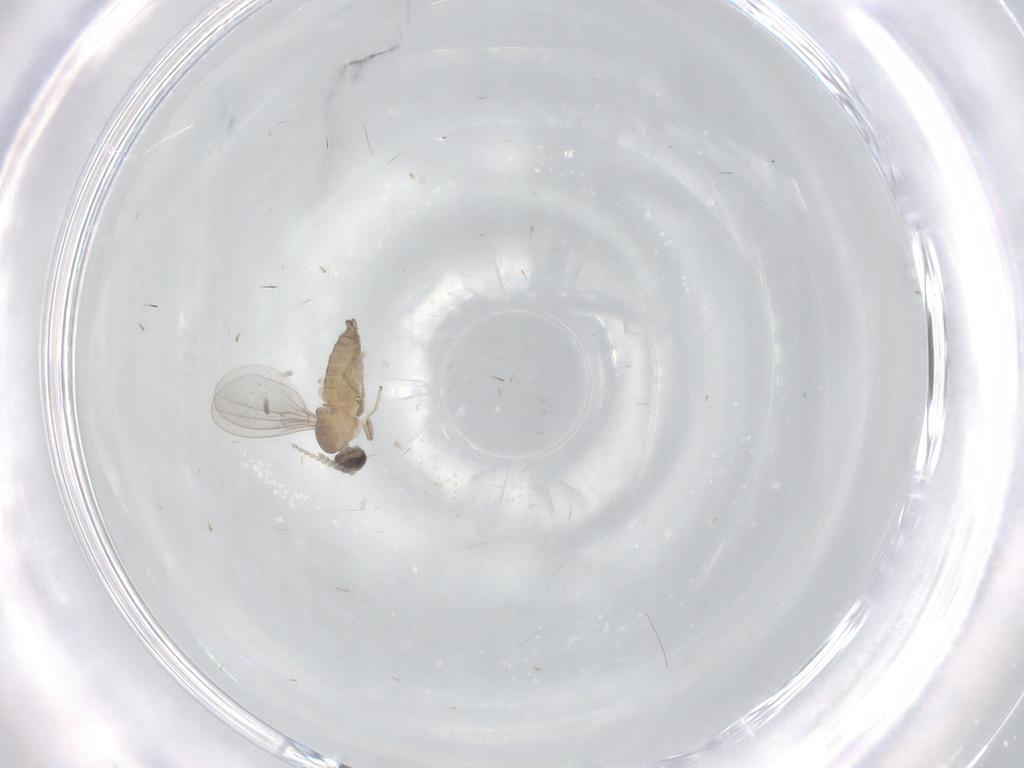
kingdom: Animalia
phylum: Arthropoda
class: Insecta
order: Diptera
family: Cecidomyiidae
